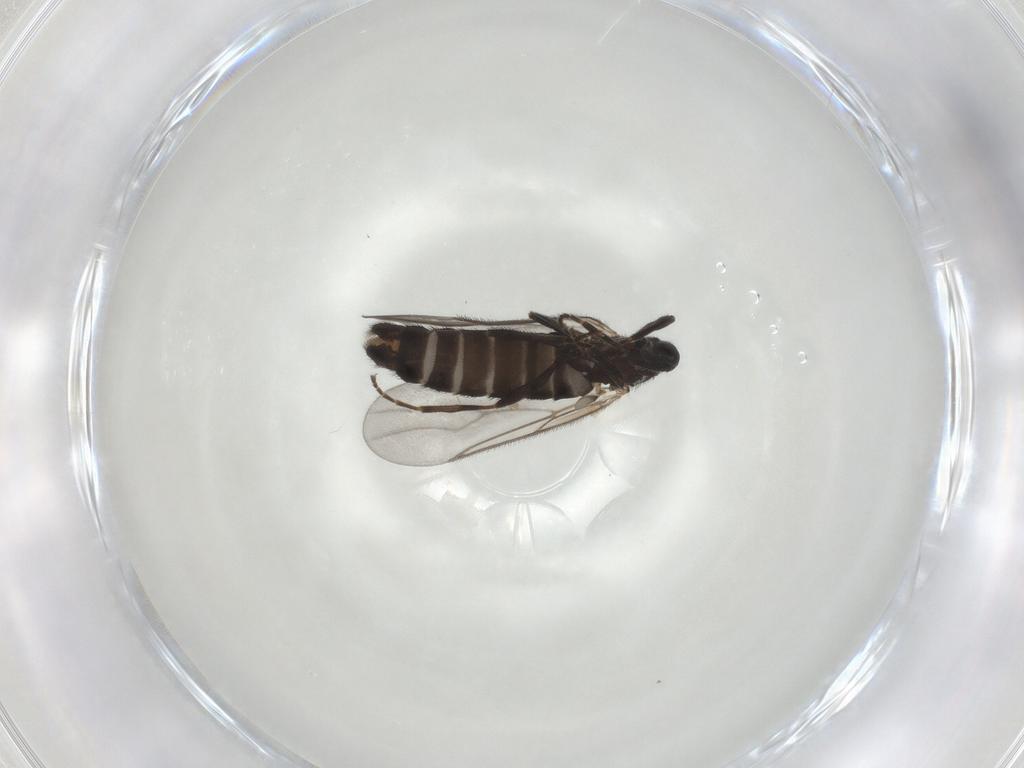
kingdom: Animalia
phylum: Arthropoda
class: Insecta
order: Diptera
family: Scatopsidae
